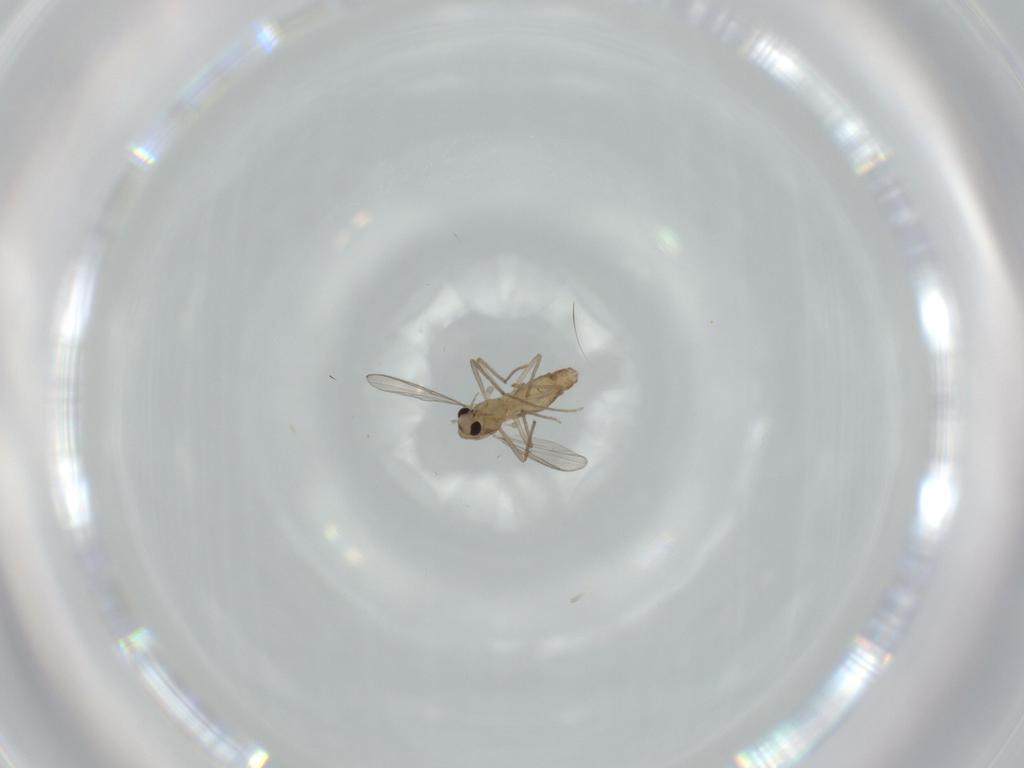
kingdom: Animalia
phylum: Arthropoda
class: Insecta
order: Diptera
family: Chironomidae
